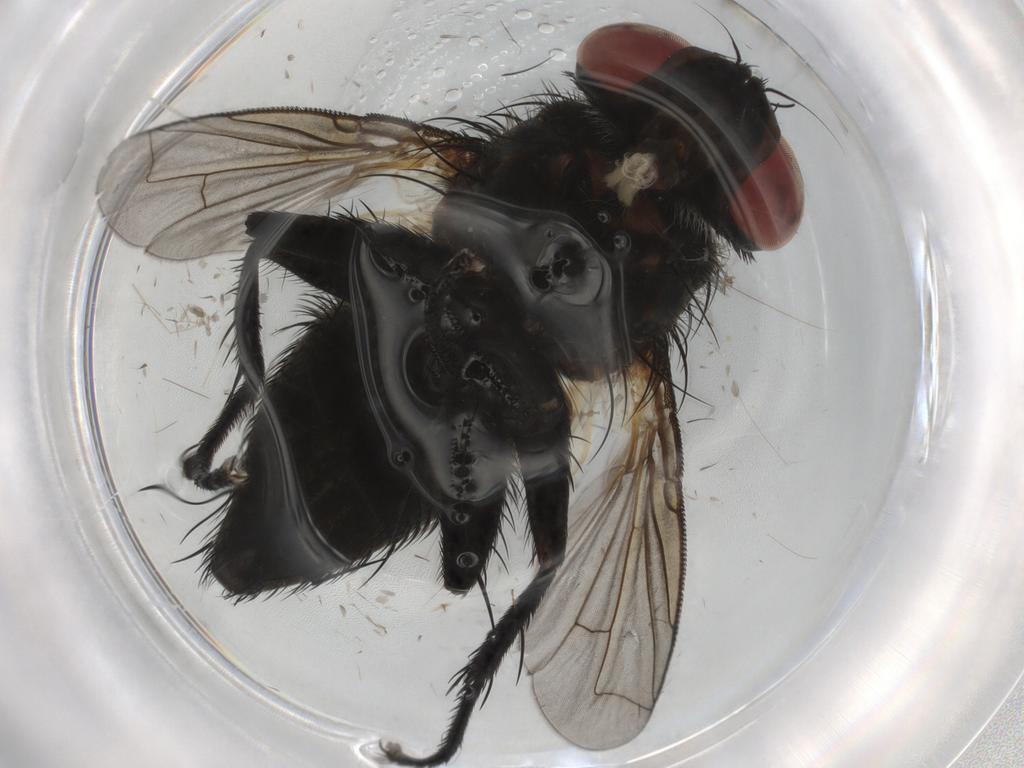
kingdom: Animalia
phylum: Arthropoda
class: Insecta
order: Diptera
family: Tachinidae
